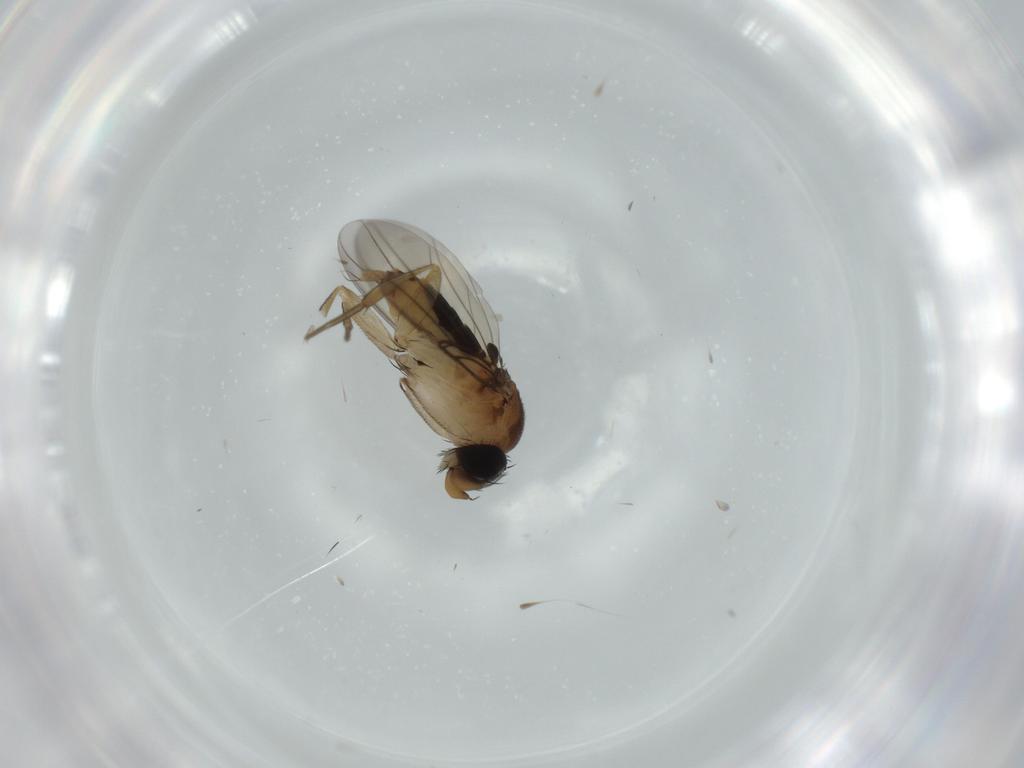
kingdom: Animalia
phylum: Arthropoda
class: Insecta
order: Diptera
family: Phoridae
